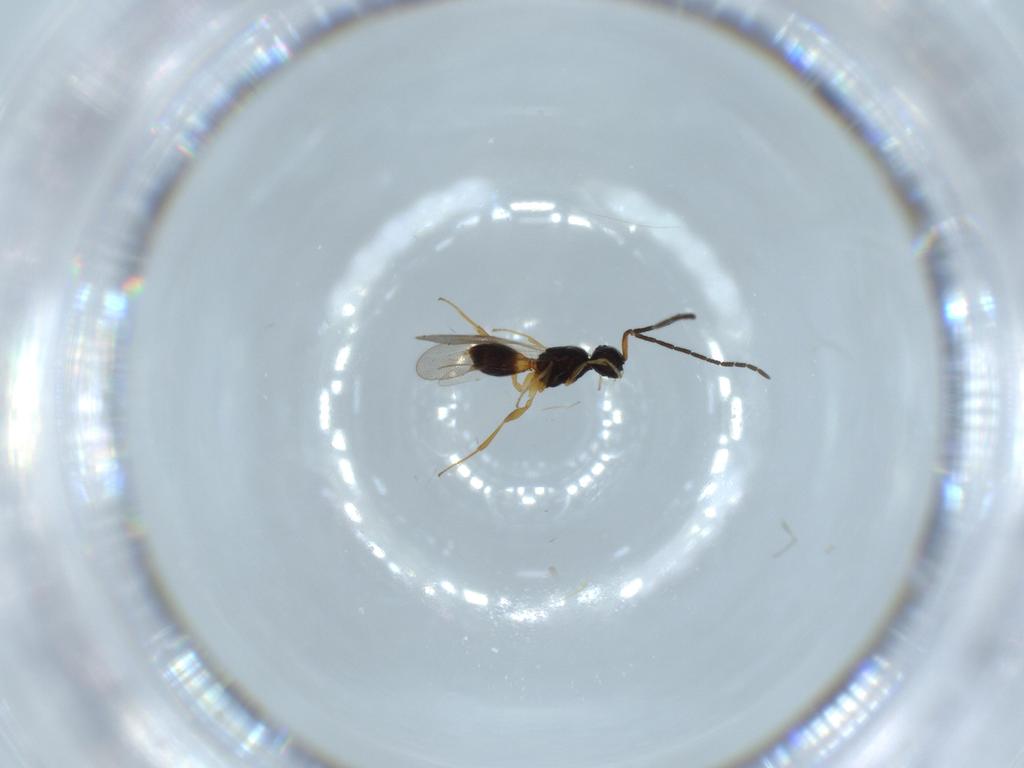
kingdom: Animalia
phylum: Arthropoda
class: Insecta
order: Hymenoptera
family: Megaspilidae
